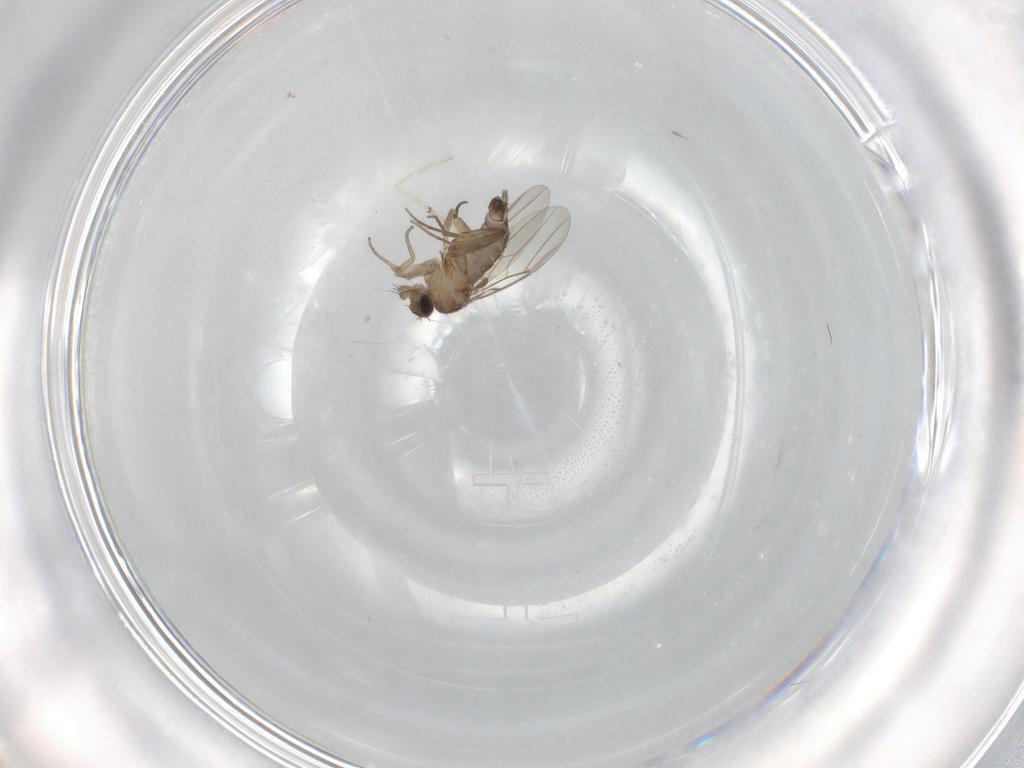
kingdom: Animalia
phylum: Arthropoda
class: Insecta
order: Diptera
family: Phoridae
